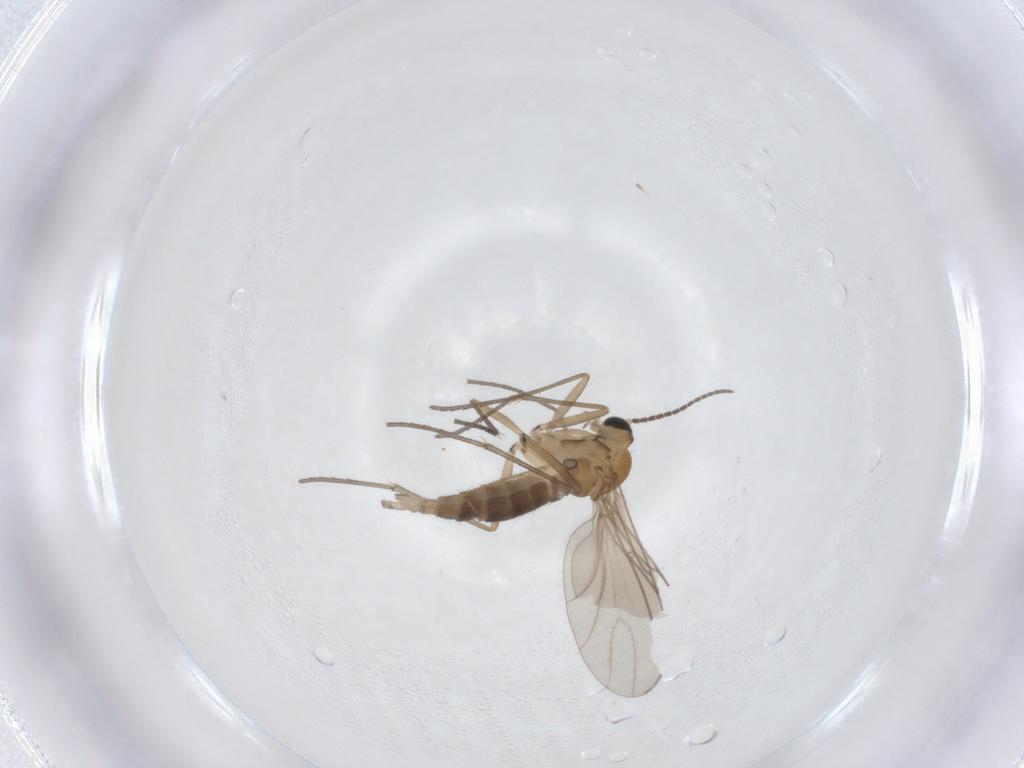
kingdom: Animalia
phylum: Arthropoda
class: Insecta
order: Diptera
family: Sciaridae
